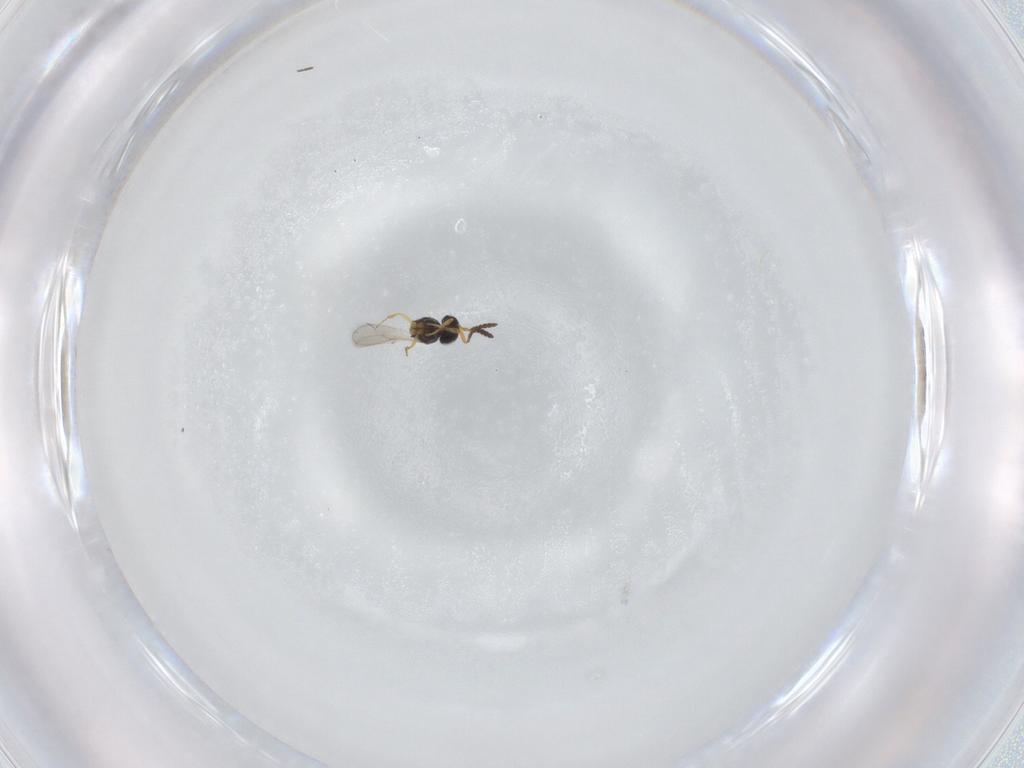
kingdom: Animalia
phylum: Arthropoda
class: Insecta
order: Hymenoptera
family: Scelionidae
